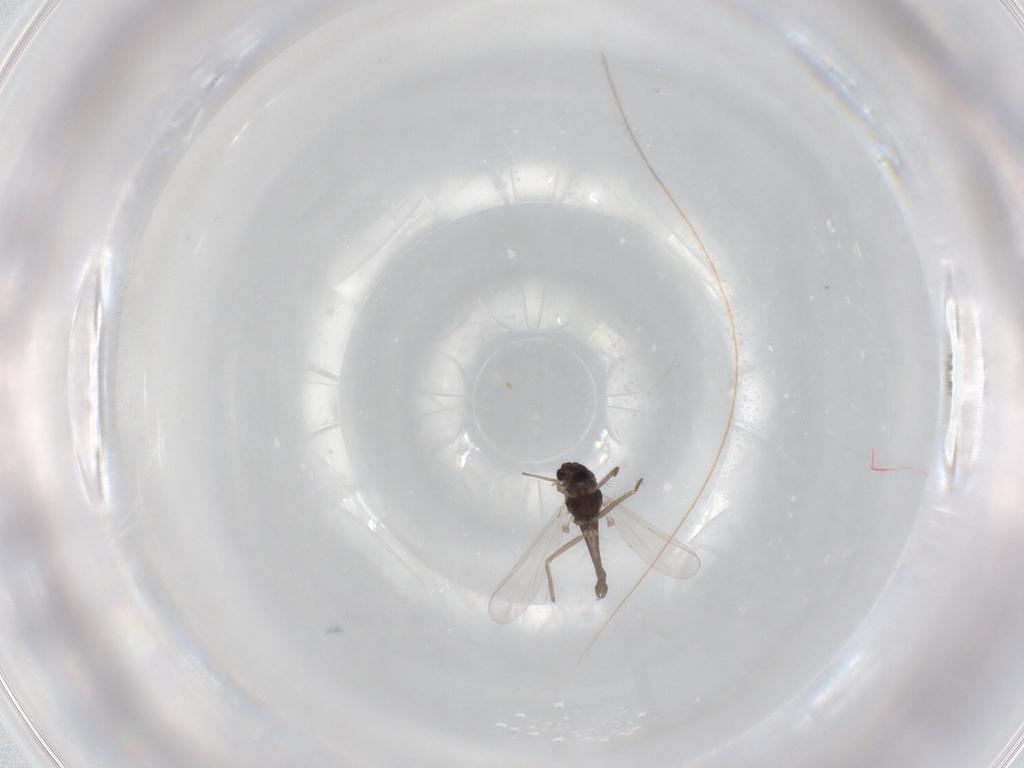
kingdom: Animalia
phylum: Arthropoda
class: Insecta
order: Diptera
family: Chironomidae
